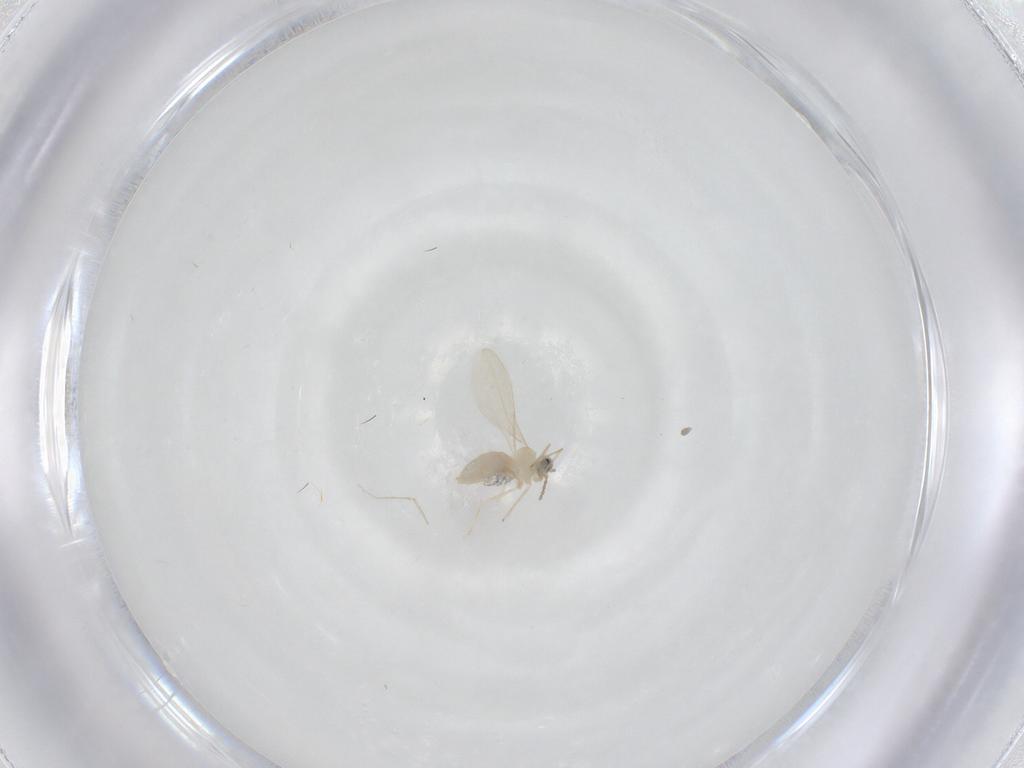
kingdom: Animalia
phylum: Arthropoda
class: Insecta
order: Diptera
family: Cecidomyiidae
